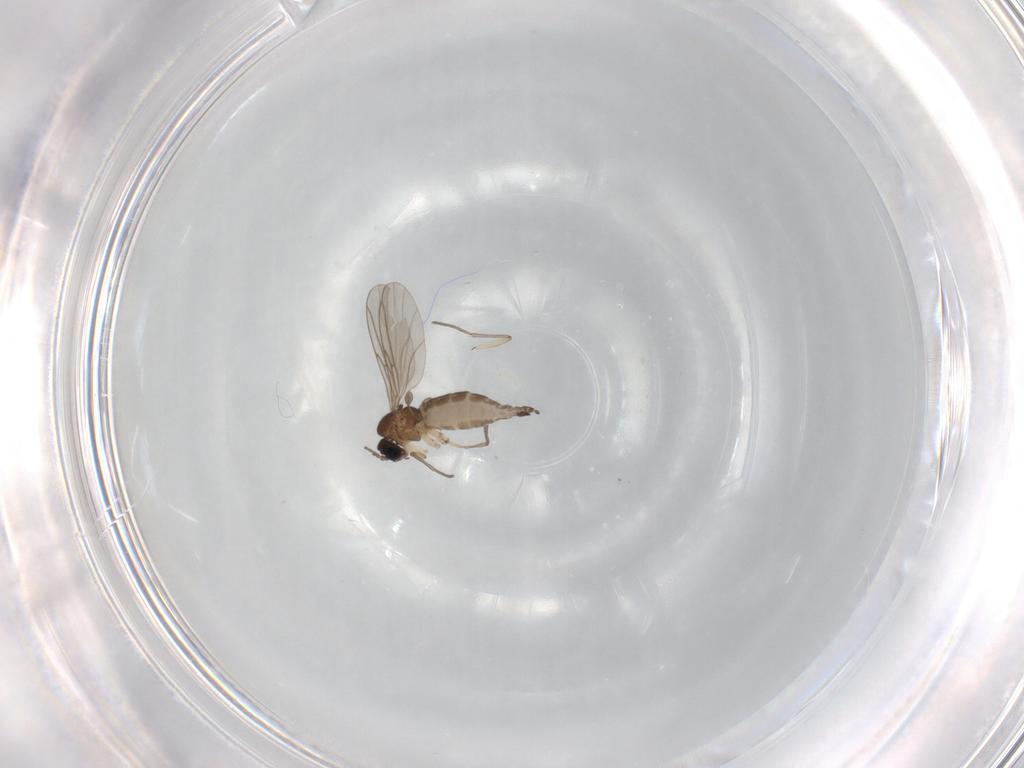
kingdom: Animalia
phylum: Arthropoda
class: Insecta
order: Diptera
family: Sciaridae
